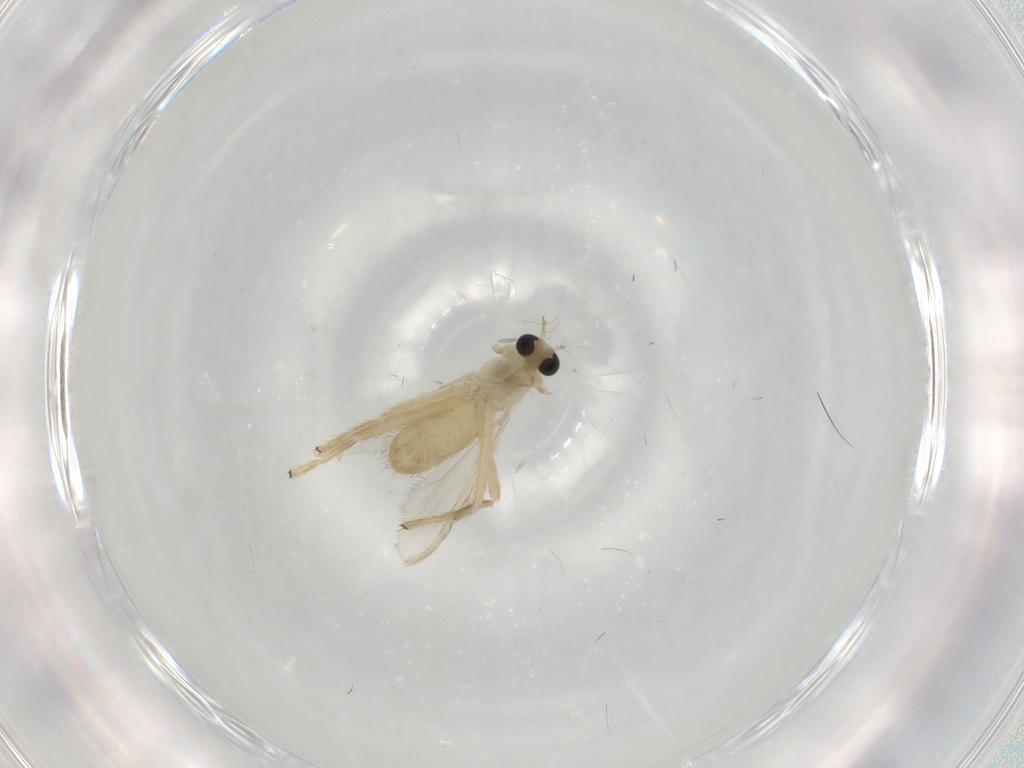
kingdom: Animalia
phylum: Arthropoda
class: Insecta
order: Diptera
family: Chironomidae
